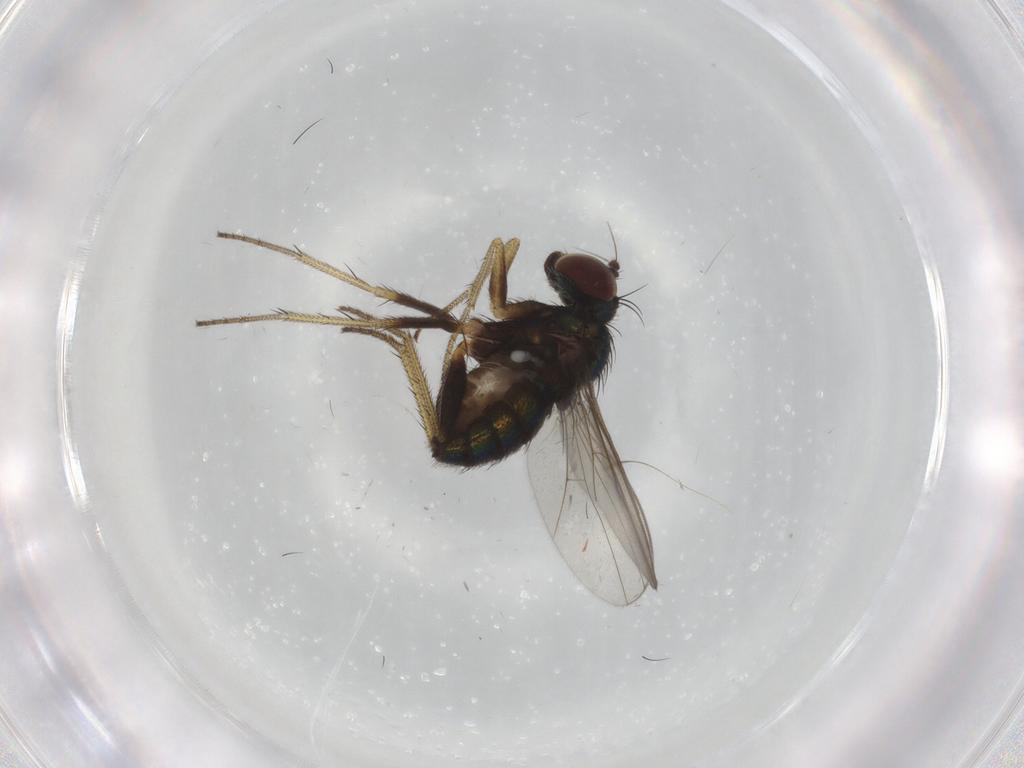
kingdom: Animalia
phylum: Arthropoda
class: Insecta
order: Diptera
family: Dolichopodidae
